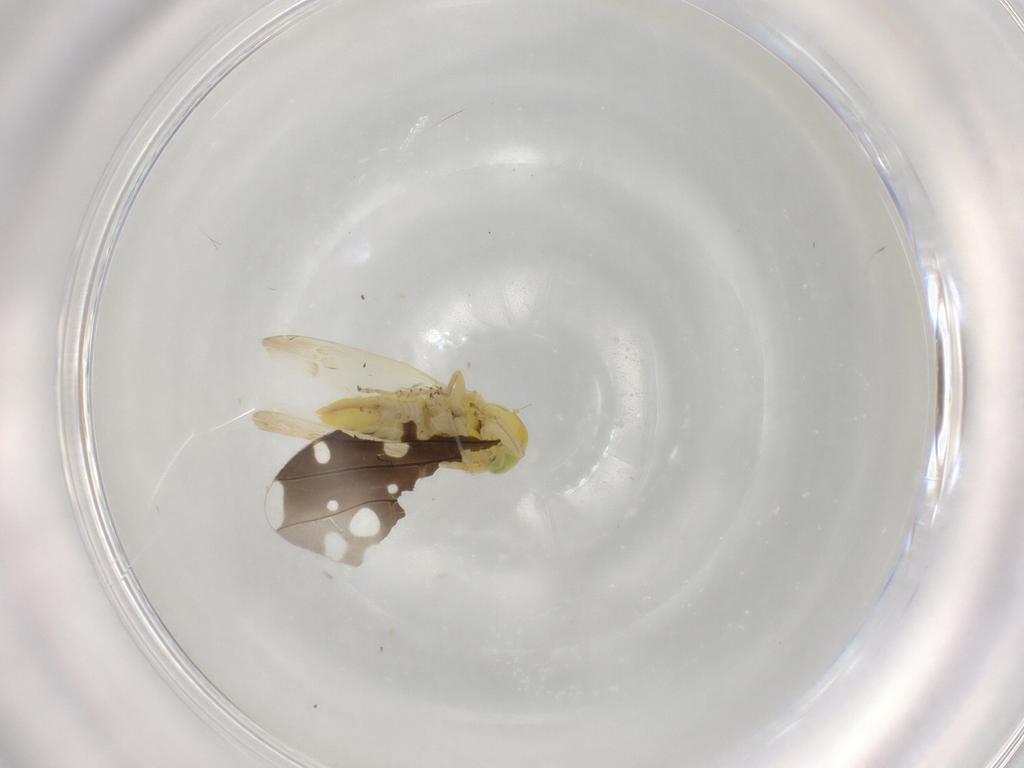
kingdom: Animalia
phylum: Arthropoda
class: Insecta
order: Hemiptera
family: Cicadellidae
